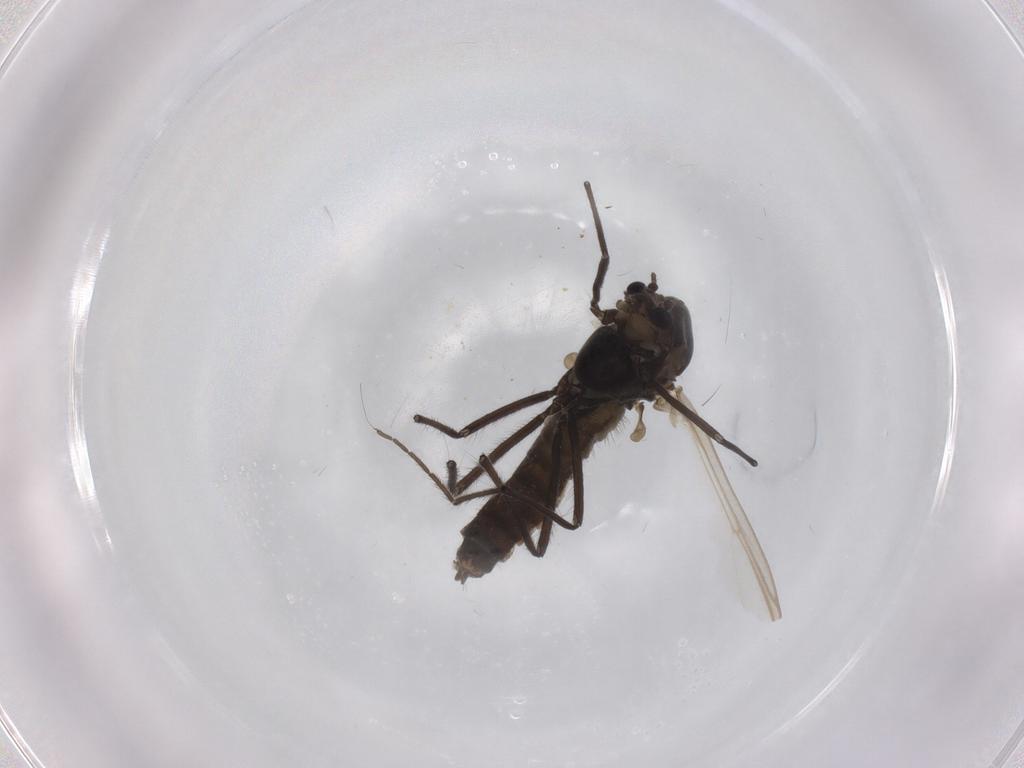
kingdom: Animalia
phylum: Arthropoda
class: Insecta
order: Diptera
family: Chironomidae
